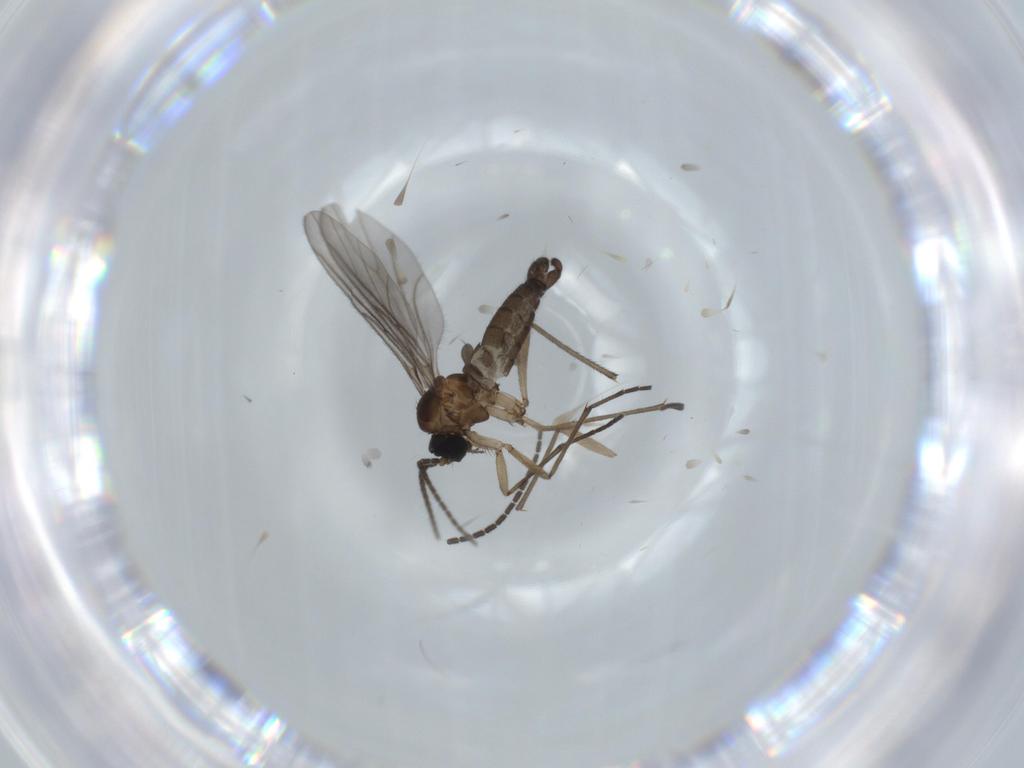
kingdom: Animalia
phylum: Arthropoda
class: Insecta
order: Diptera
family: Sciaridae
